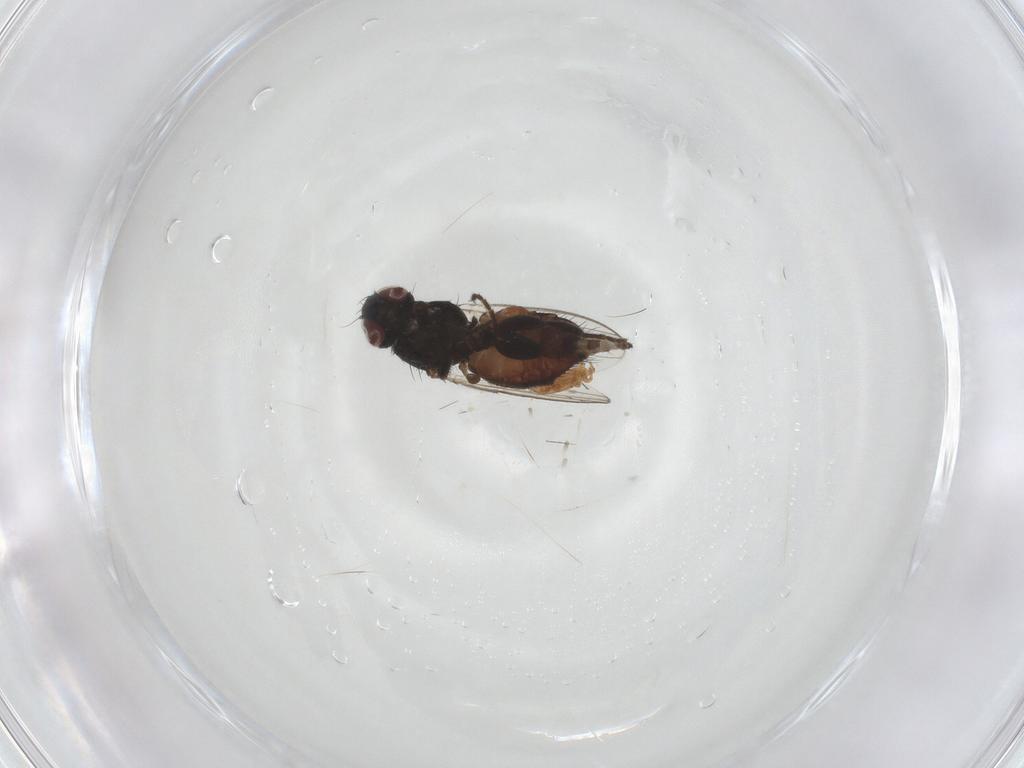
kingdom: Animalia
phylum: Arthropoda
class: Insecta
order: Diptera
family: Milichiidae
